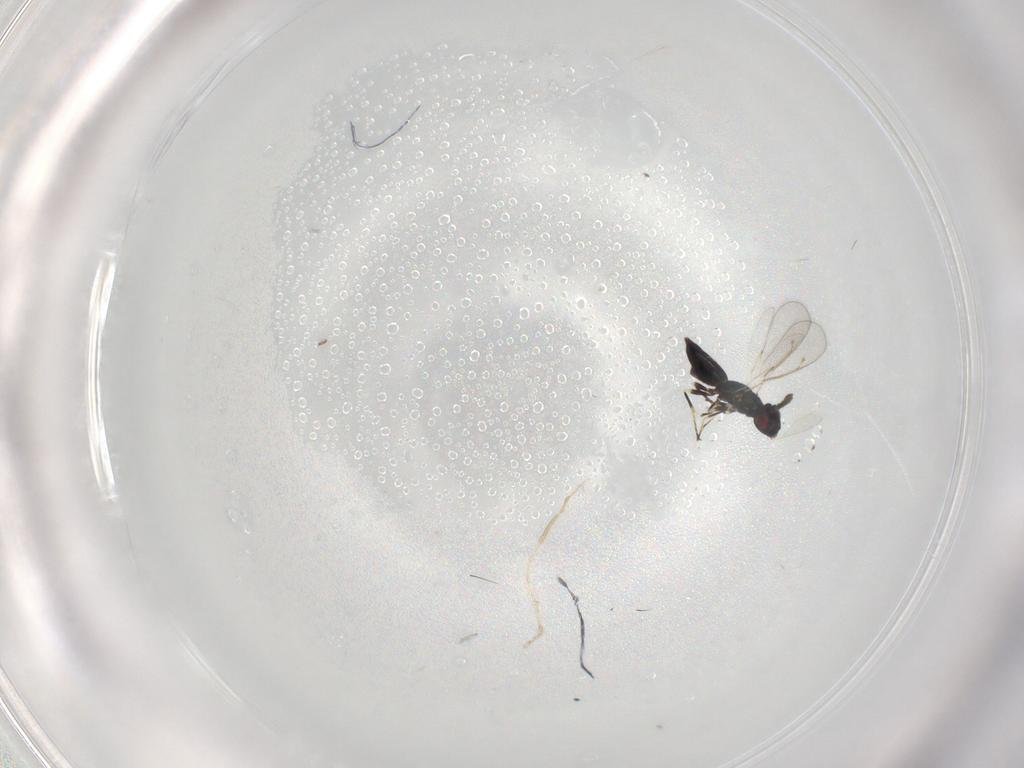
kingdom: Animalia
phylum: Arthropoda
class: Insecta
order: Hymenoptera
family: Eulophidae
